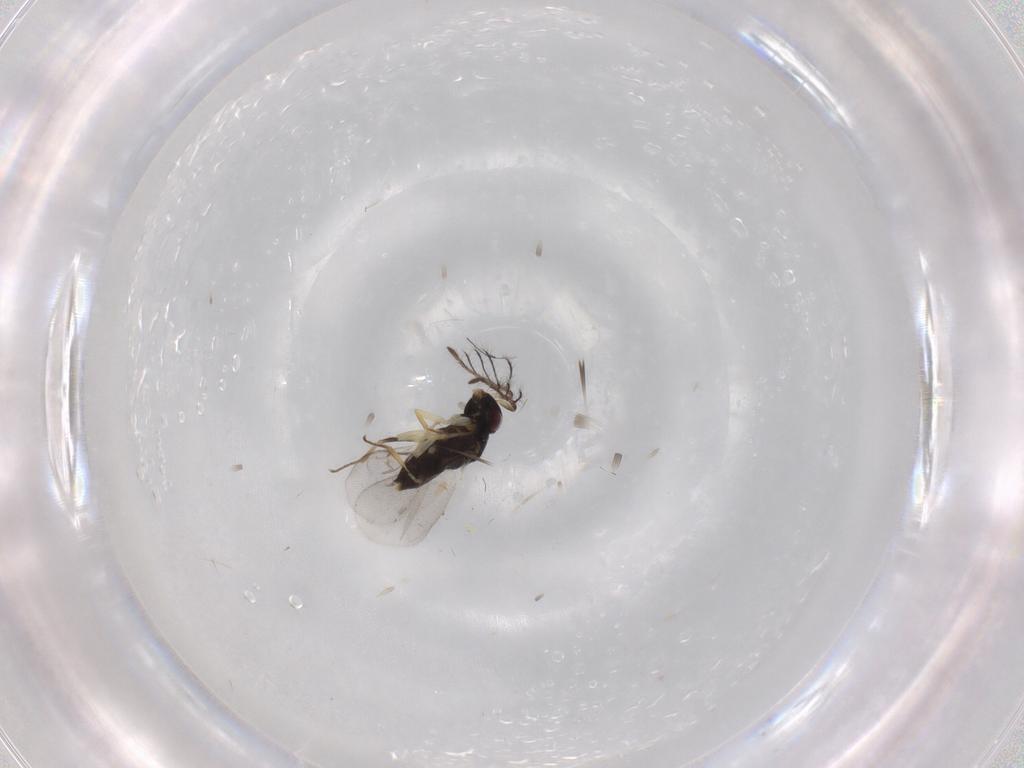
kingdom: Animalia
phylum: Arthropoda
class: Insecta
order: Hymenoptera
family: Encyrtidae
